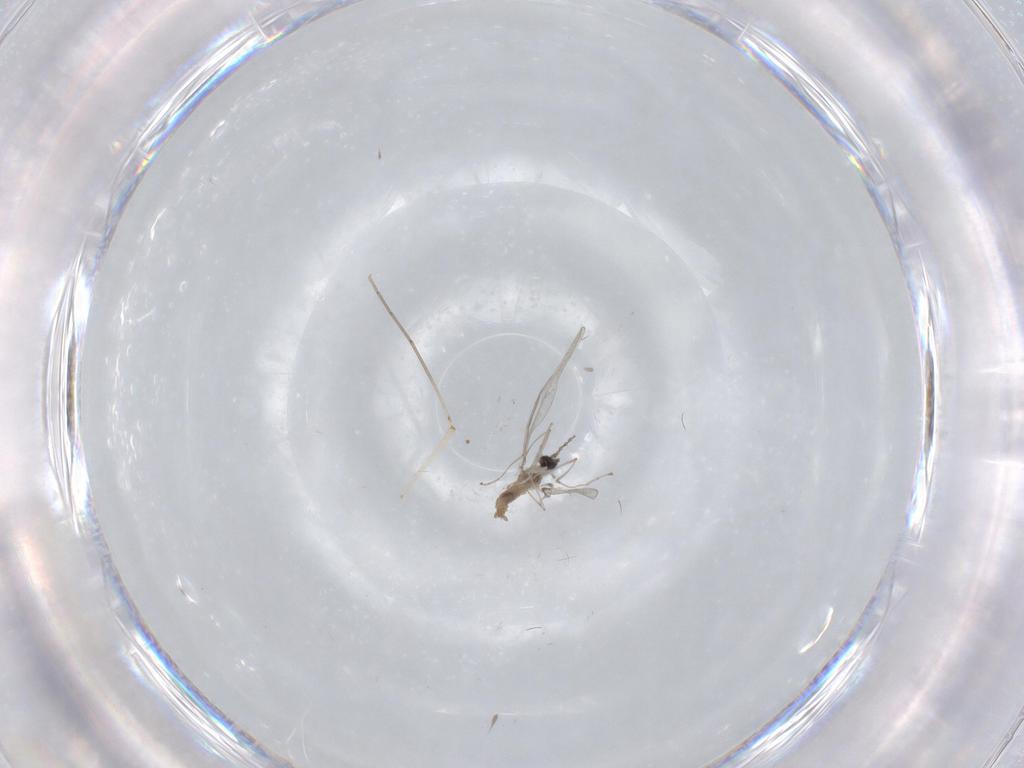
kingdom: Animalia
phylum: Arthropoda
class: Insecta
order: Diptera
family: Cecidomyiidae
